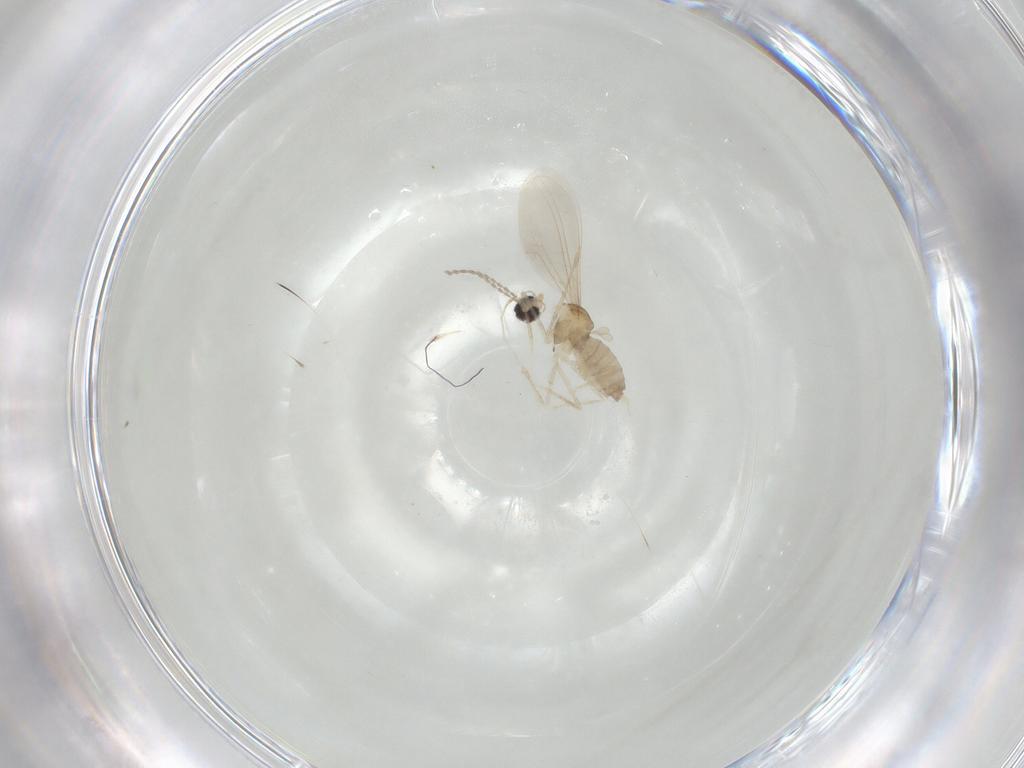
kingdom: Animalia
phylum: Arthropoda
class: Insecta
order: Diptera
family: Cecidomyiidae
